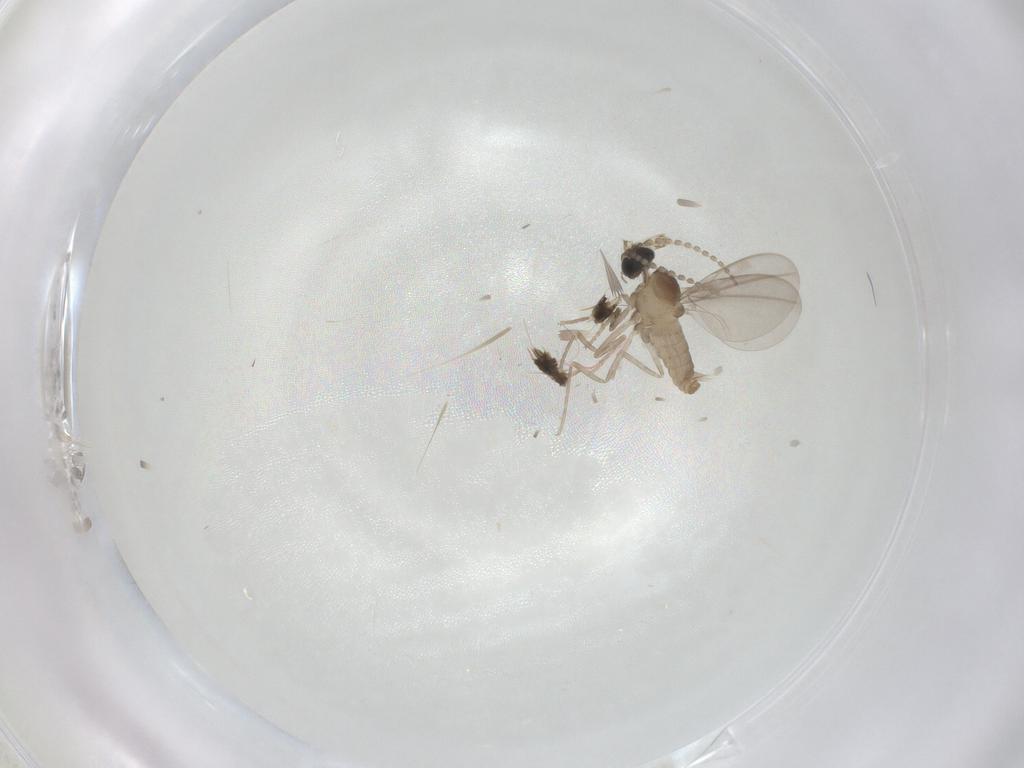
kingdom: Animalia
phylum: Arthropoda
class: Insecta
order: Diptera
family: Cecidomyiidae
